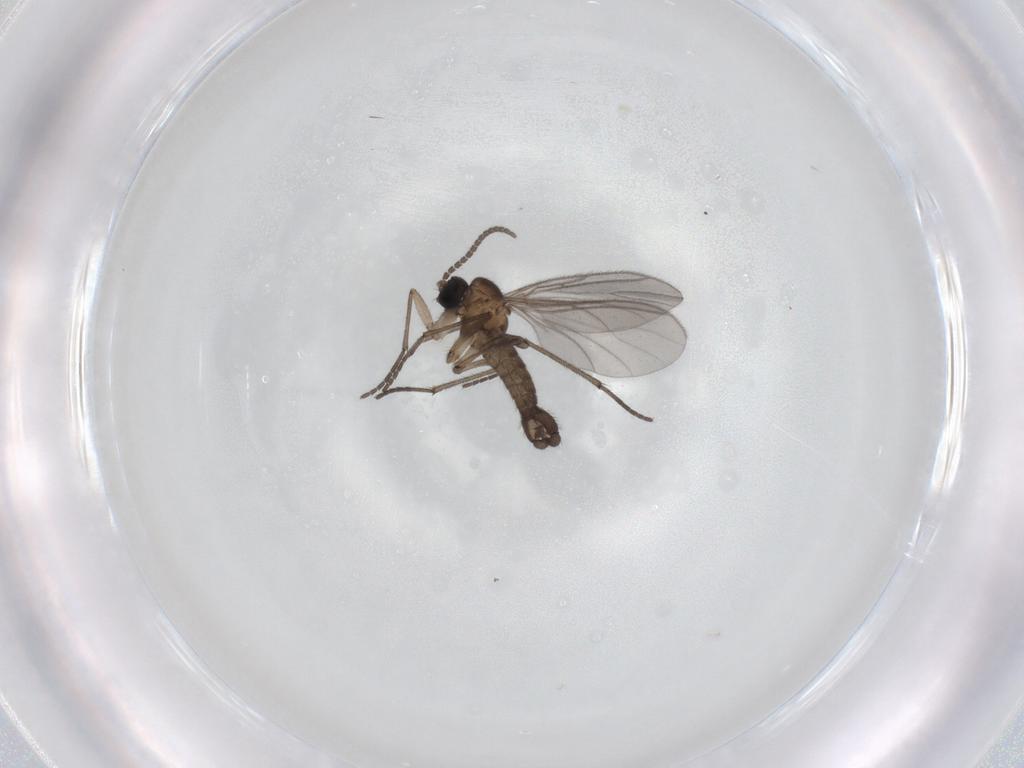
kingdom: Animalia
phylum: Arthropoda
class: Insecta
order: Diptera
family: Sciaridae
